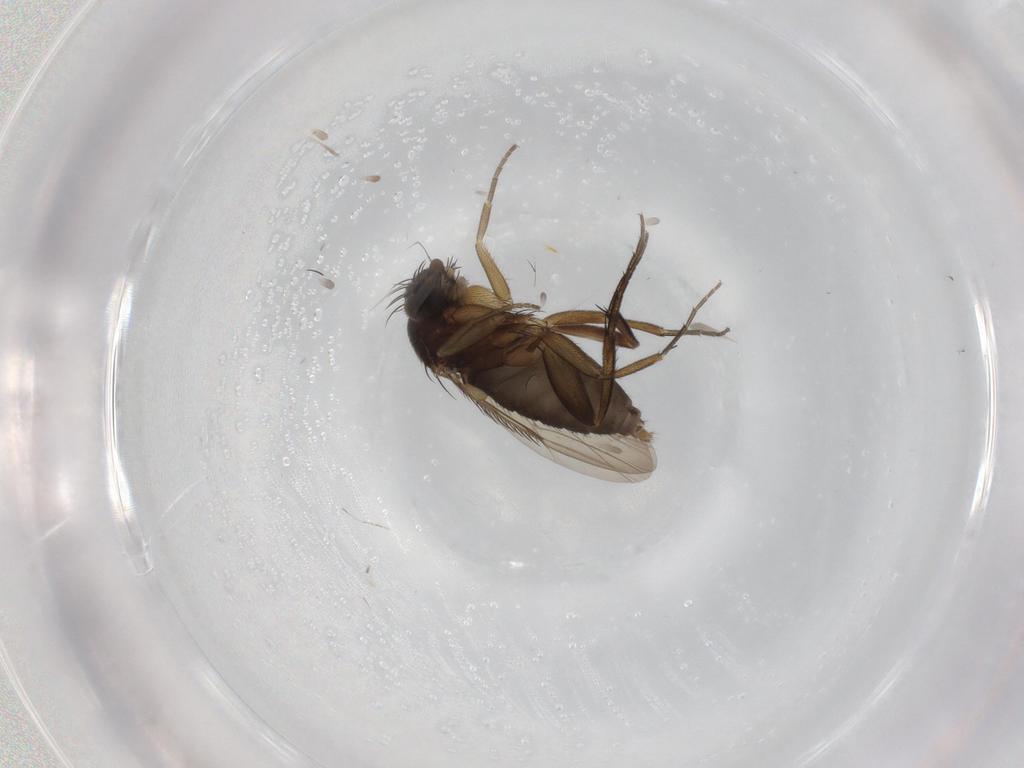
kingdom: Animalia
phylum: Arthropoda
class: Insecta
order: Diptera
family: Phoridae
